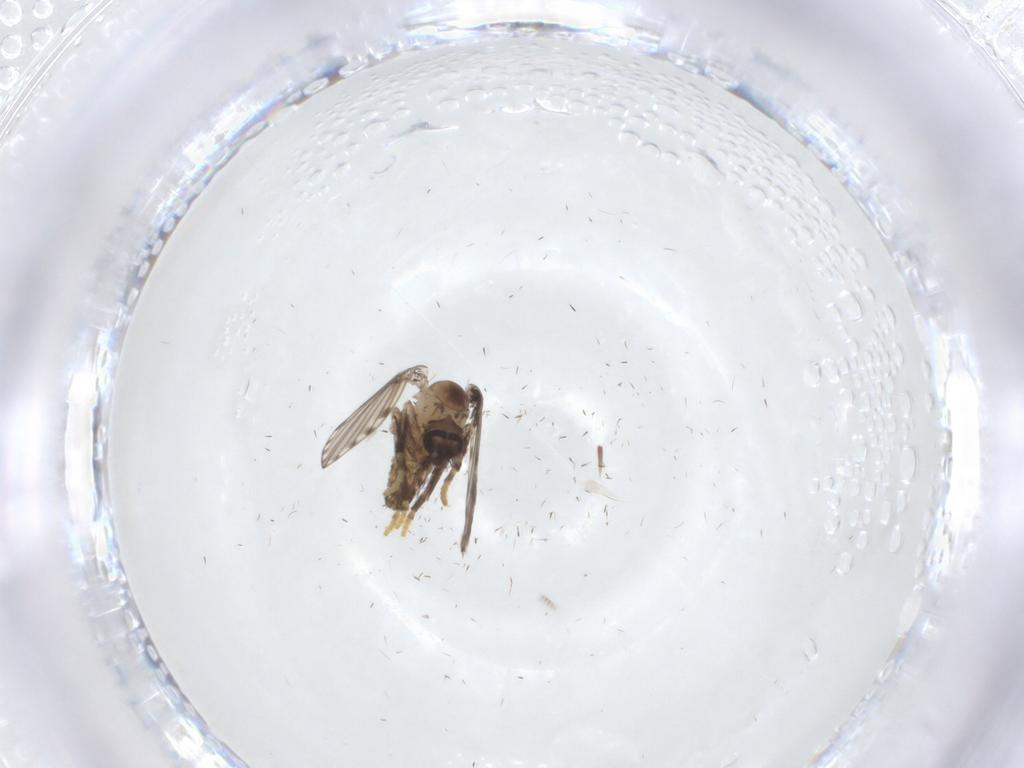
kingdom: Animalia
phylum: Arthropoda
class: Insecta
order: Diptera
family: Psychodidae
